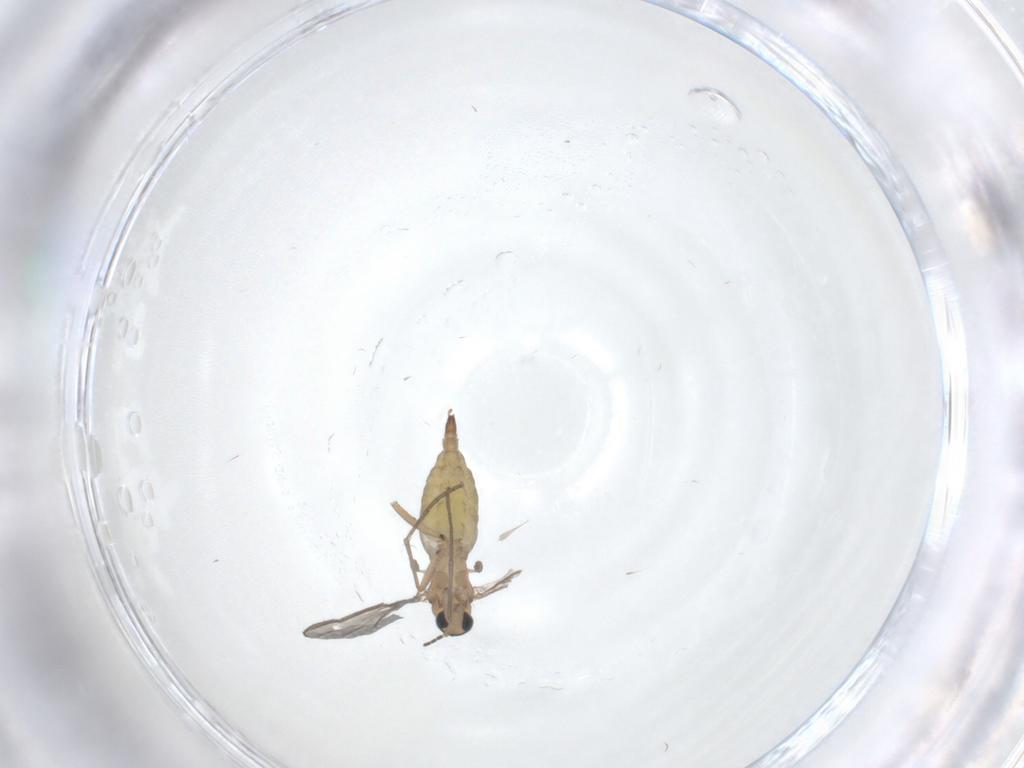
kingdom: Animalia
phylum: Arthropoda
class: Insecta
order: Diptera
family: Sciaridae
